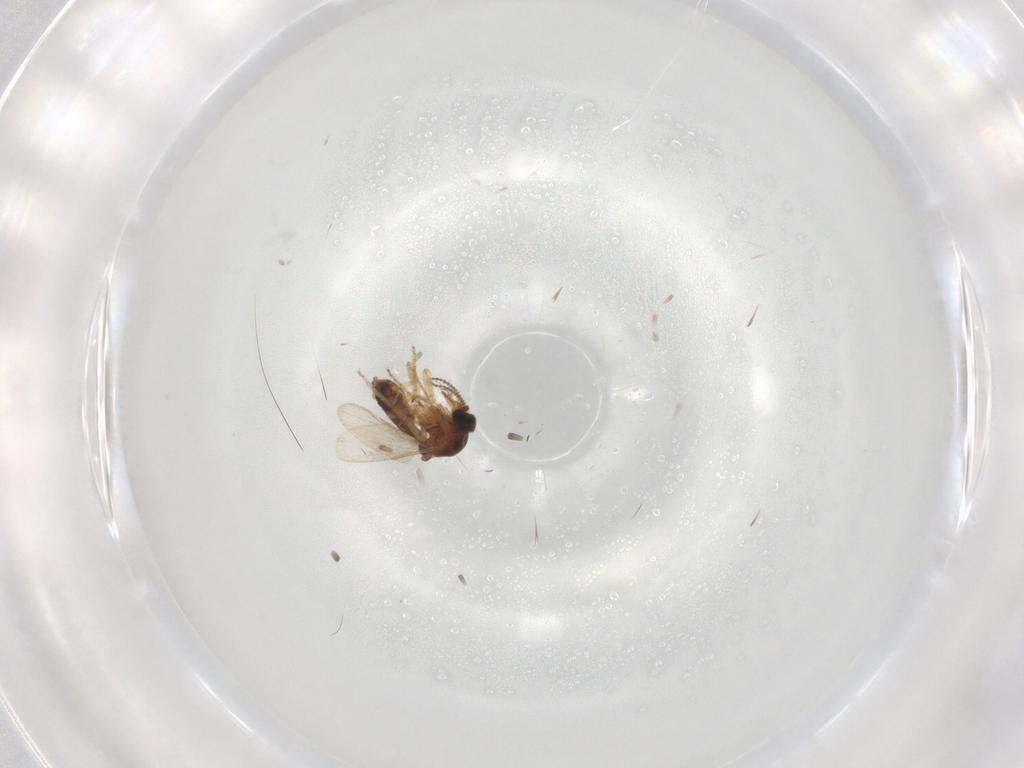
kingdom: Animalia
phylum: Arthropoda
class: Insecta
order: Diptera
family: Ceratopogonidae
